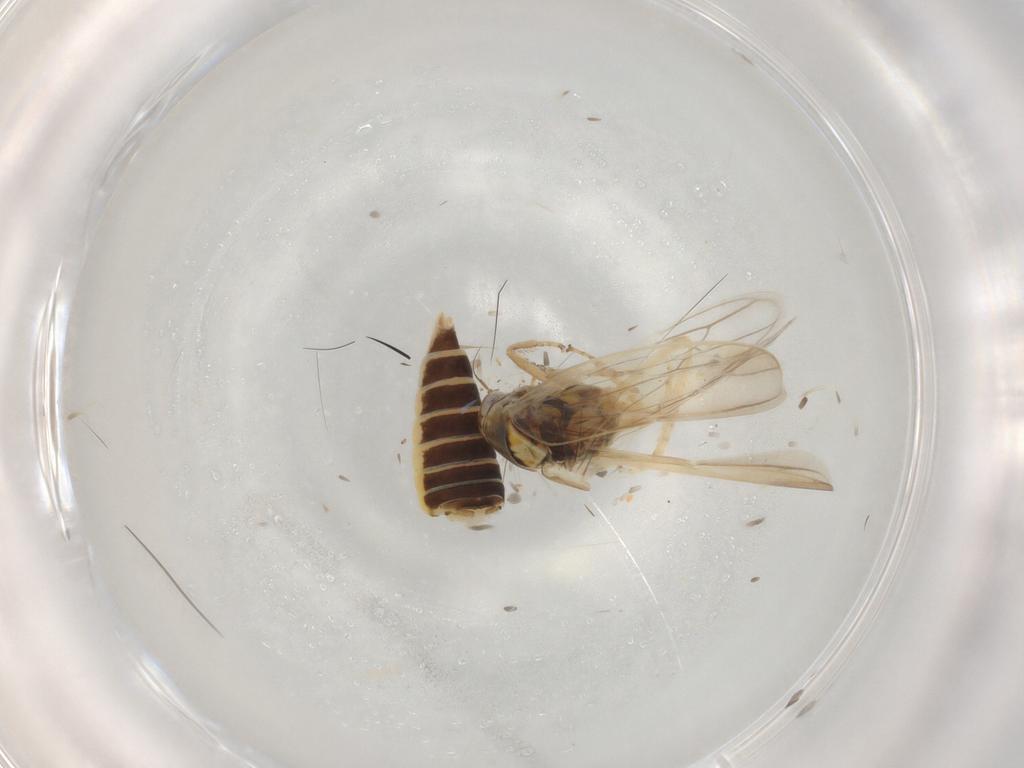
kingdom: Animalia
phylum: Arthropoda
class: Insecta
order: Hemiptera
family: Cicadellidae
